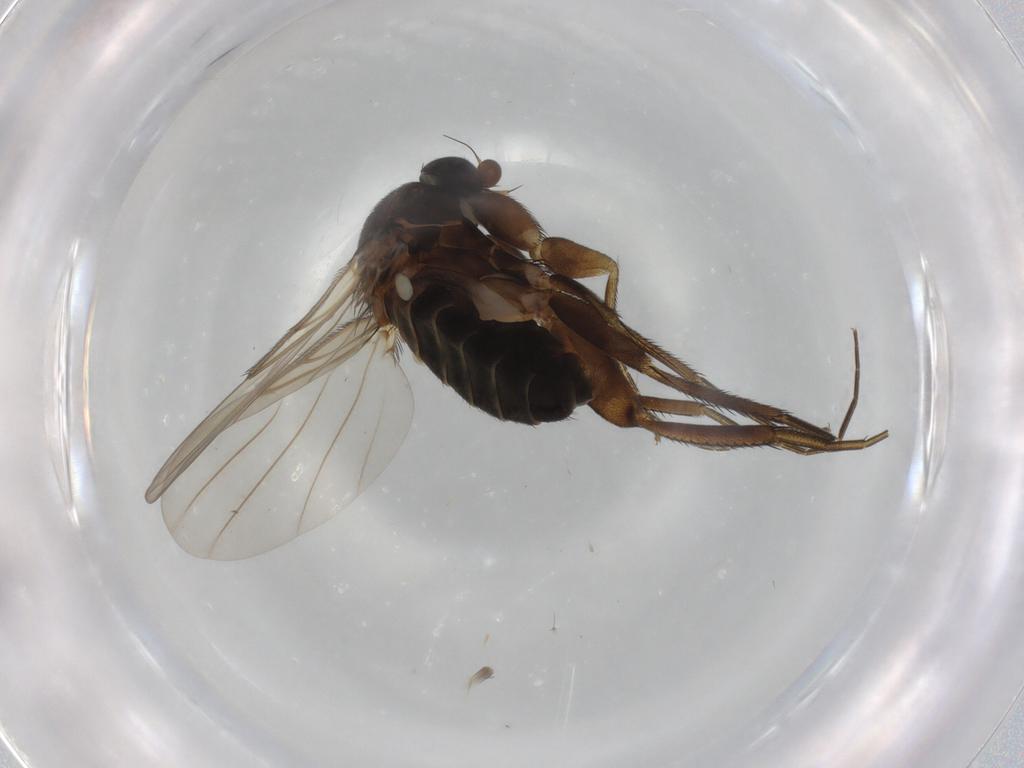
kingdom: Animalia
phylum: Arthropoda
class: Insecta
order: Diptera
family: Phoridae
